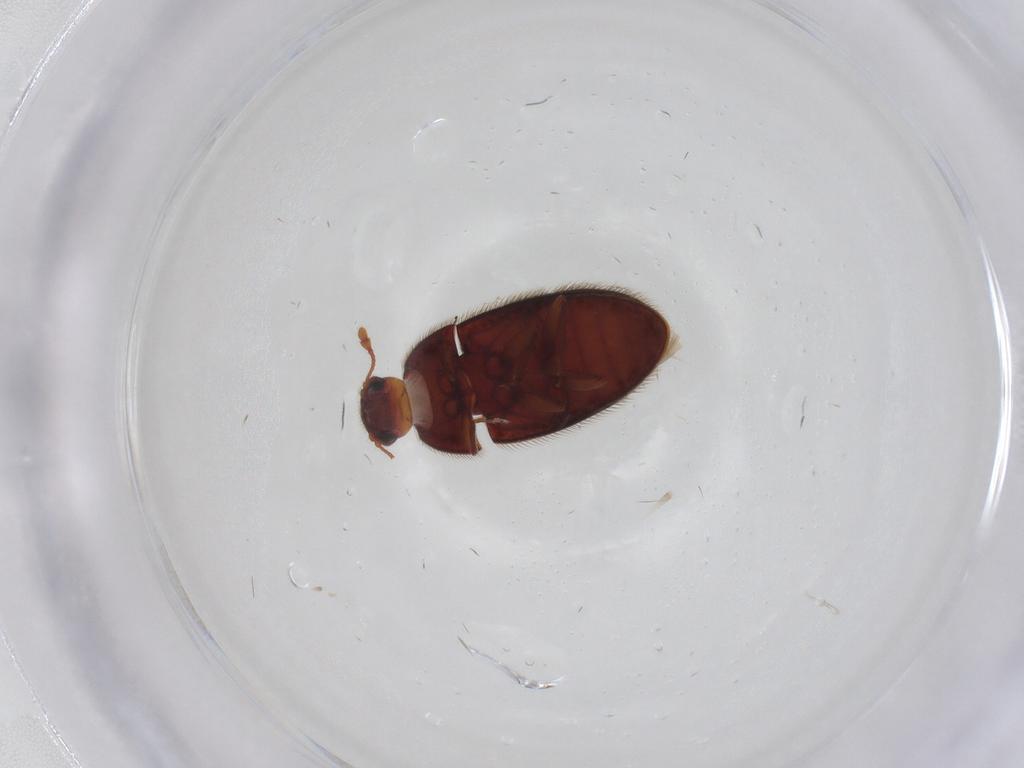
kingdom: Animalia
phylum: Arthropoda
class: Insecta
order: Coleoptera
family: Biphyllidae
